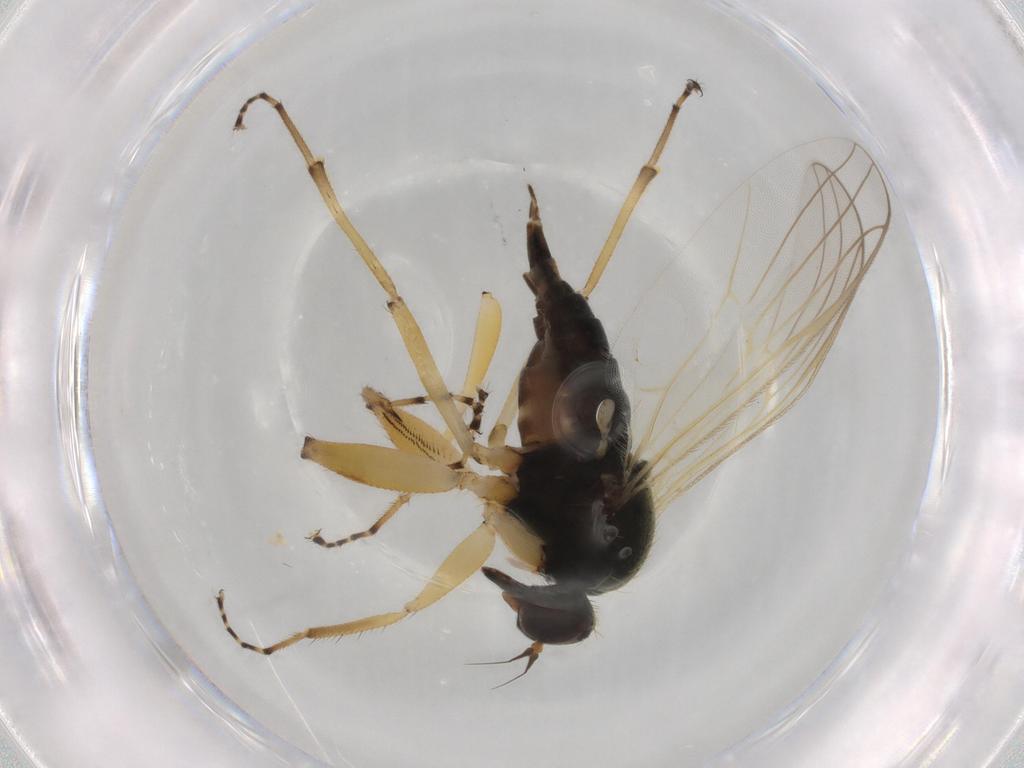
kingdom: Animalia
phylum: Arthropoda
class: Insecta
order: Diptera
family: Hybotidae
